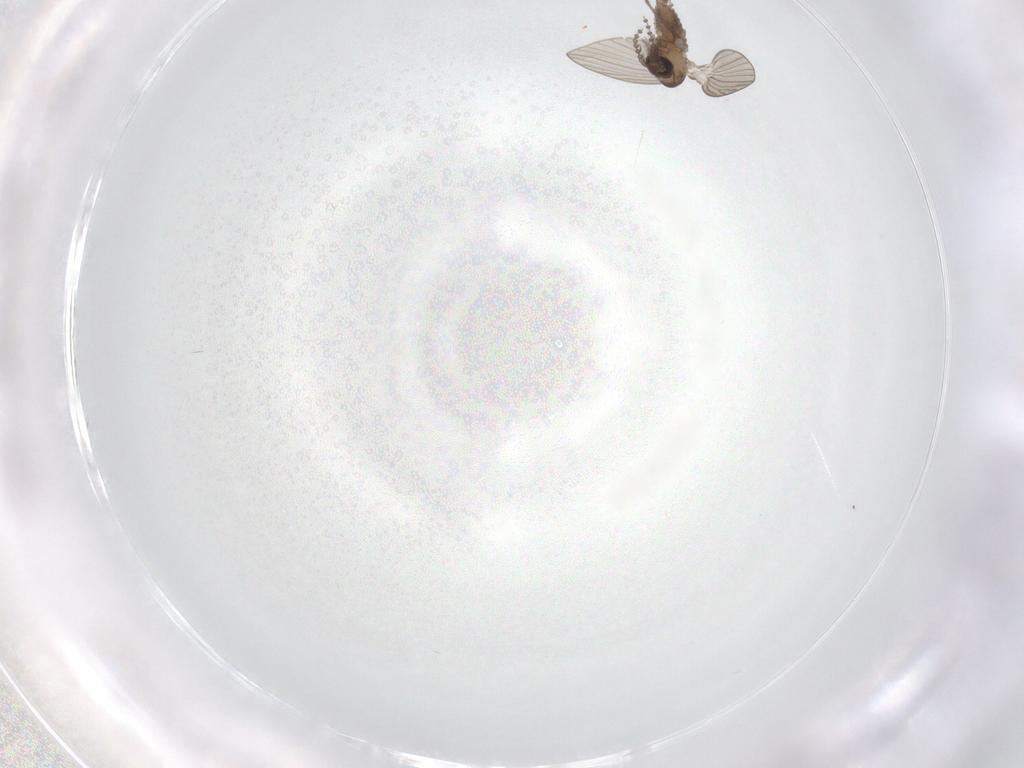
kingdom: Animalia
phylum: Arthropoda
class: Insecta
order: Diptera
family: Psychodidae
